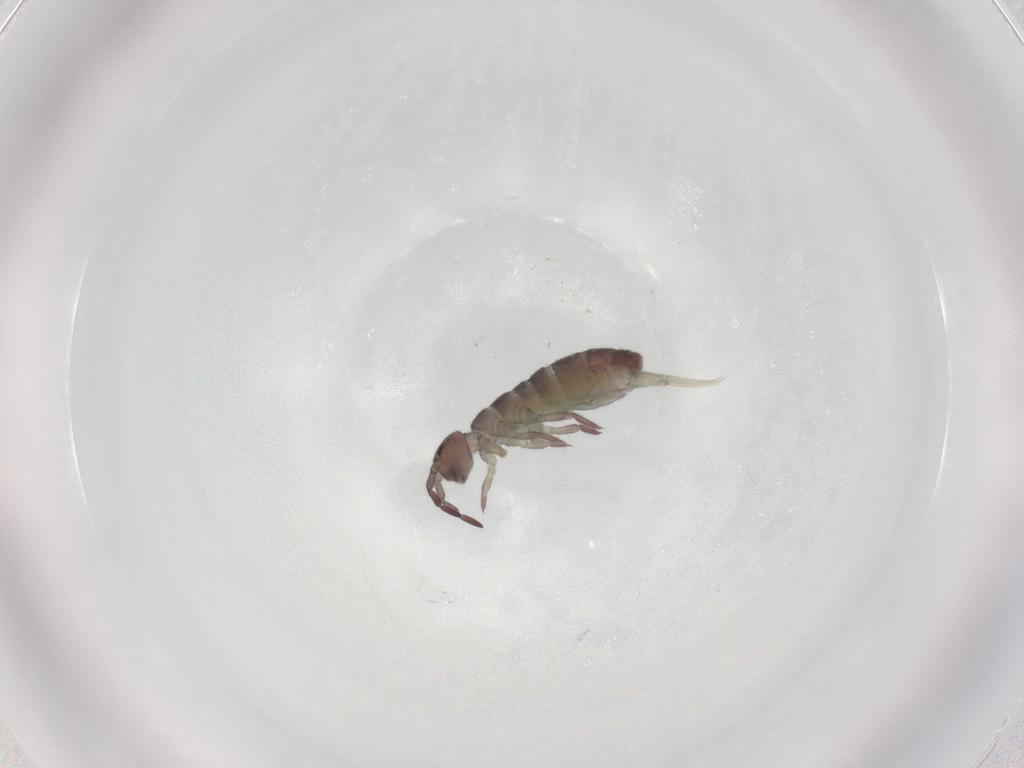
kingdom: Animalia
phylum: Arthropoda
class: Collembola
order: Entomobryomorpha
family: Isotomidae
